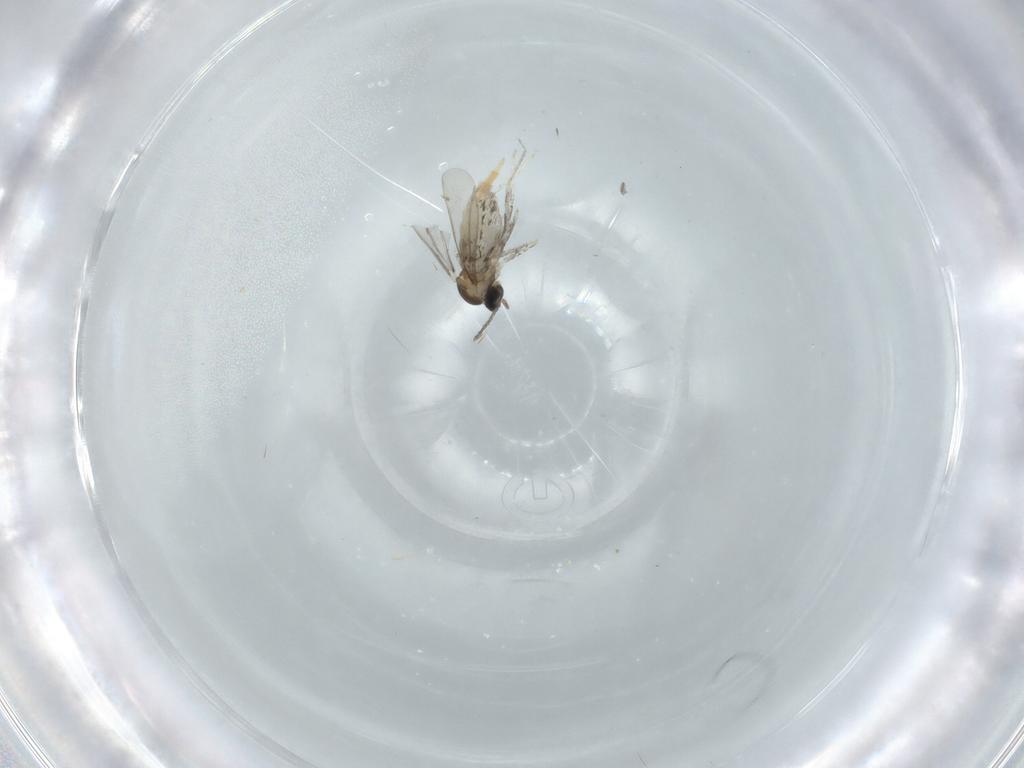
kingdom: Animalia
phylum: Arthropoda
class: Insecta
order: Diptera
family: Cecidomyiidae
